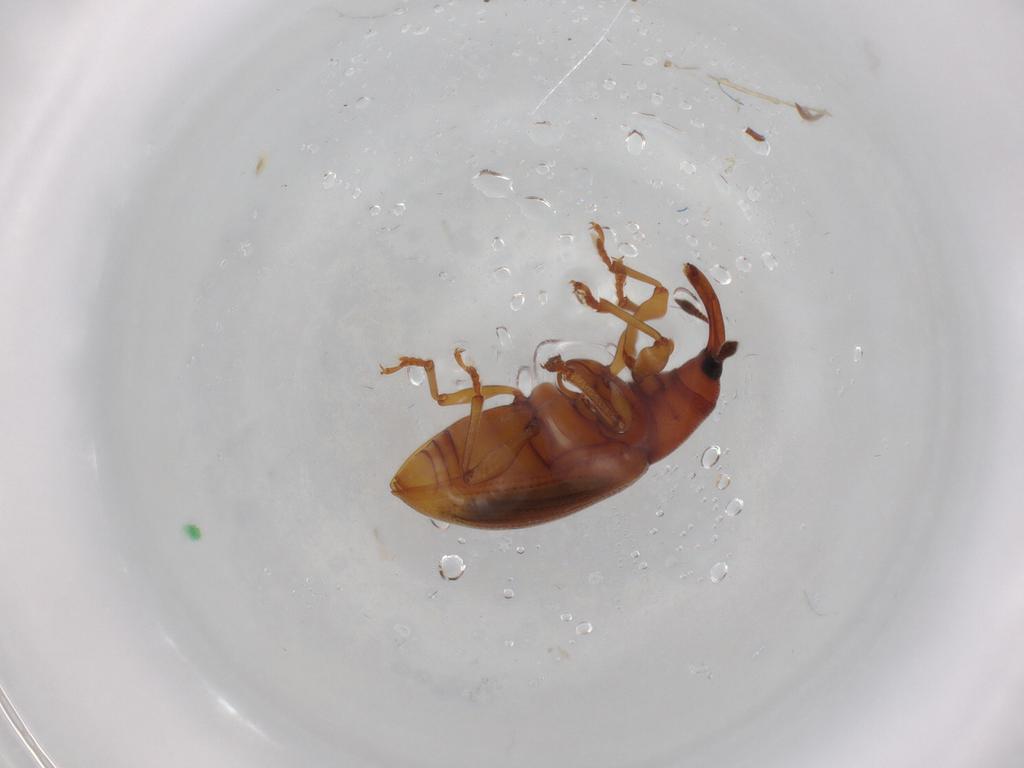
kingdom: Animalia
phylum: Arthropoda
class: Insecta
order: Coleoptera
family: Curculionidae
